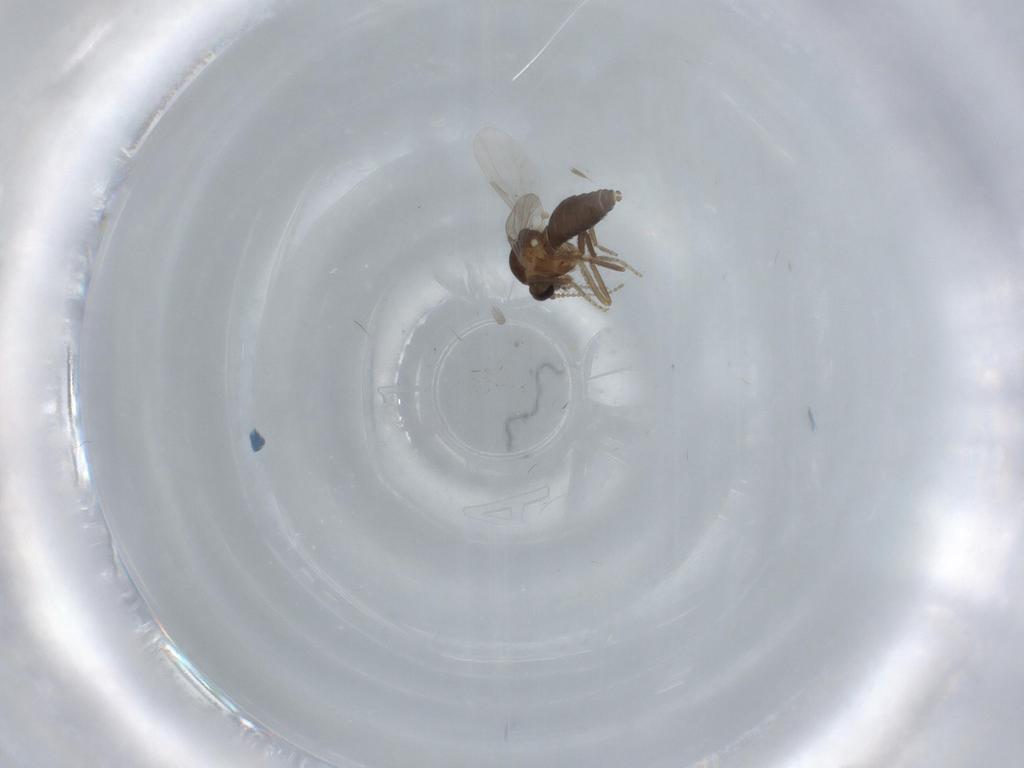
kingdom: Animalia
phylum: Arthropoda
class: Insecta
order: Diptera
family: Ceratopogonidae
